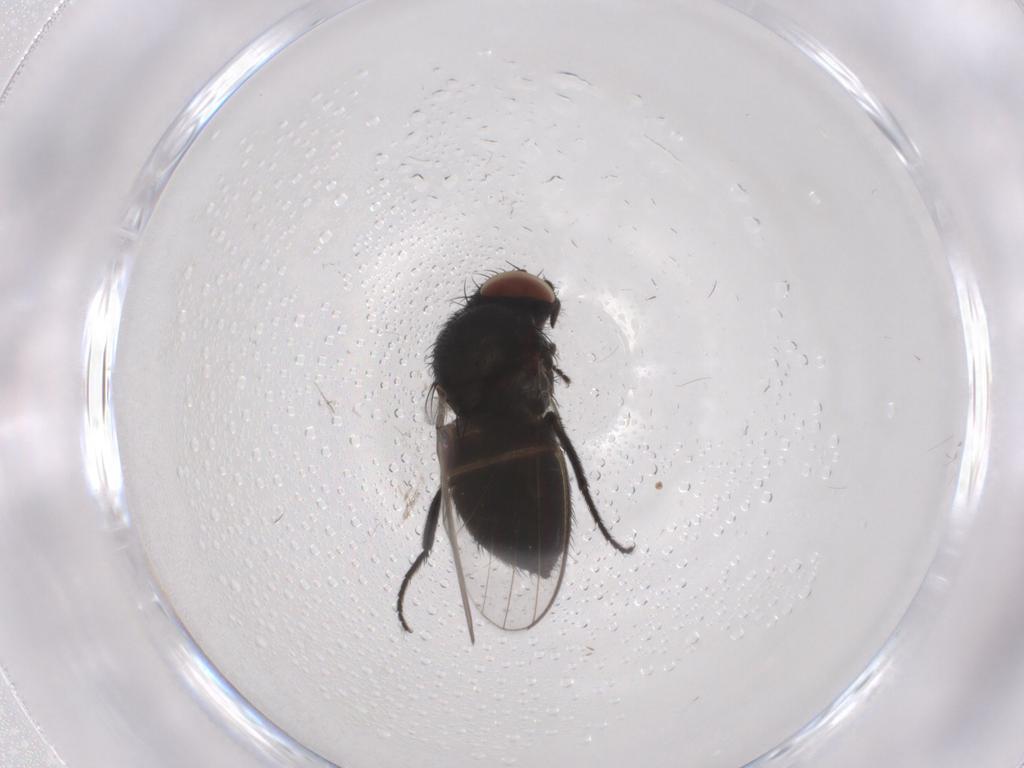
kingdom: Animalia
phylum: Arthropoda
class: Insecta
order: Diptera
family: Milichiidae
